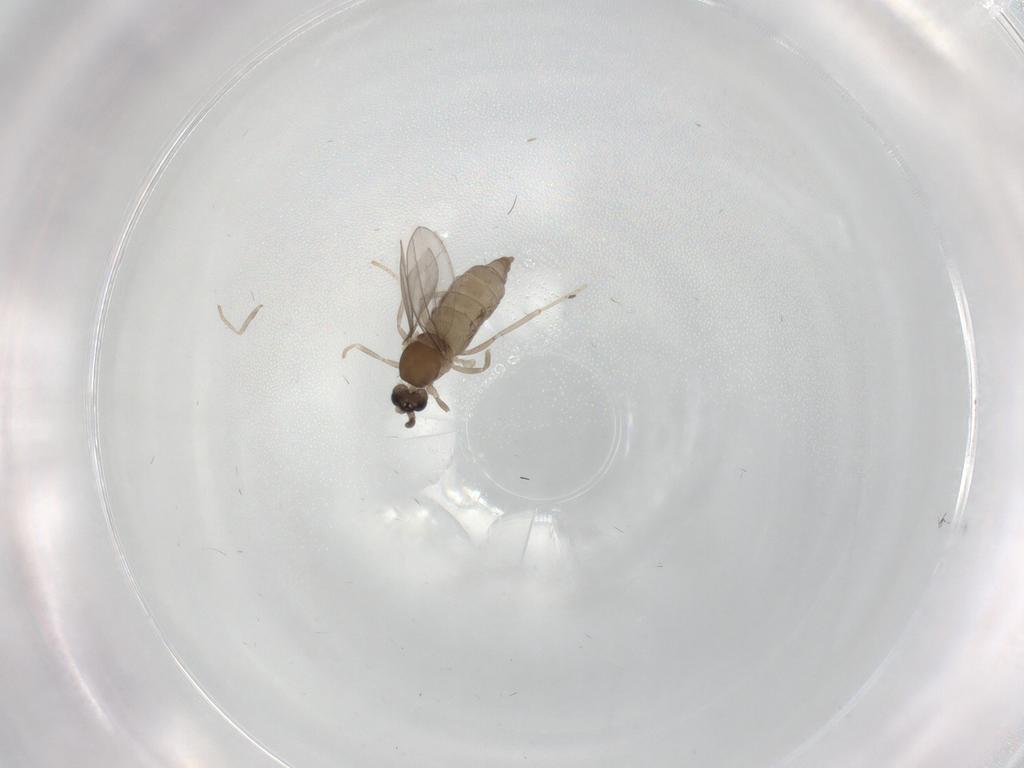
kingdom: Animalia
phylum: Arthropoda
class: Insecta
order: Diptera
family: Cecidomyiidae
